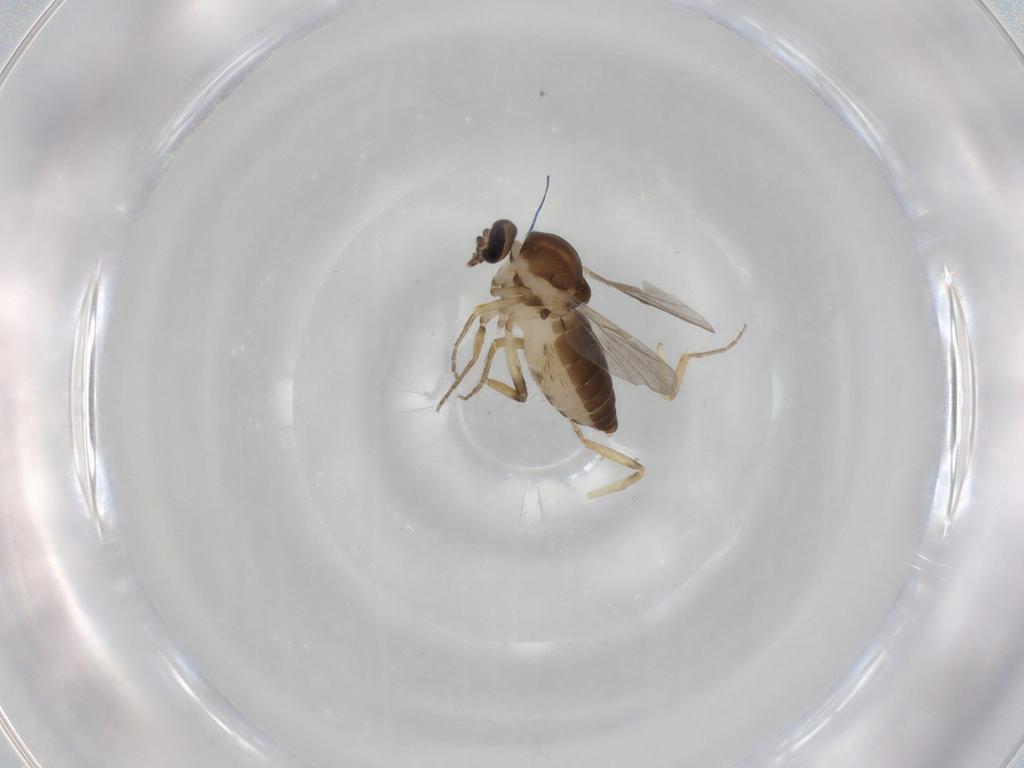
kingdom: Animalia
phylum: Arthropoda
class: Insecta
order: Diptera
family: Ceratopogonidae
